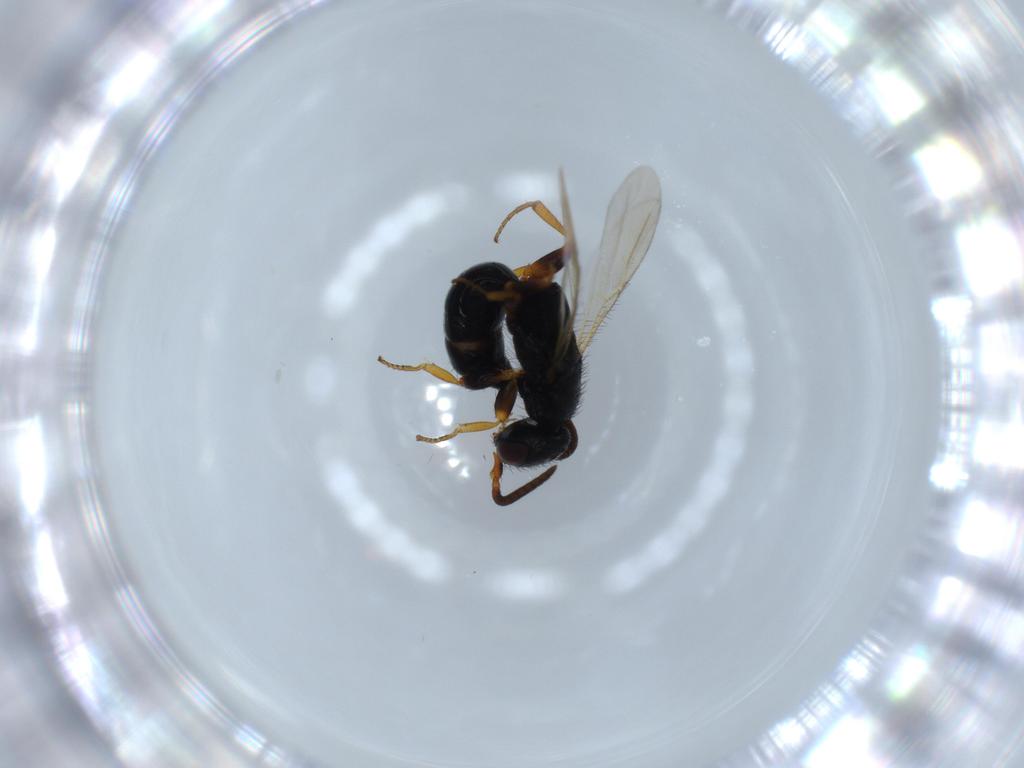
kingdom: Animalia
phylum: Arthropoda
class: Insecta
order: Hymenoptera
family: Bethylidae
